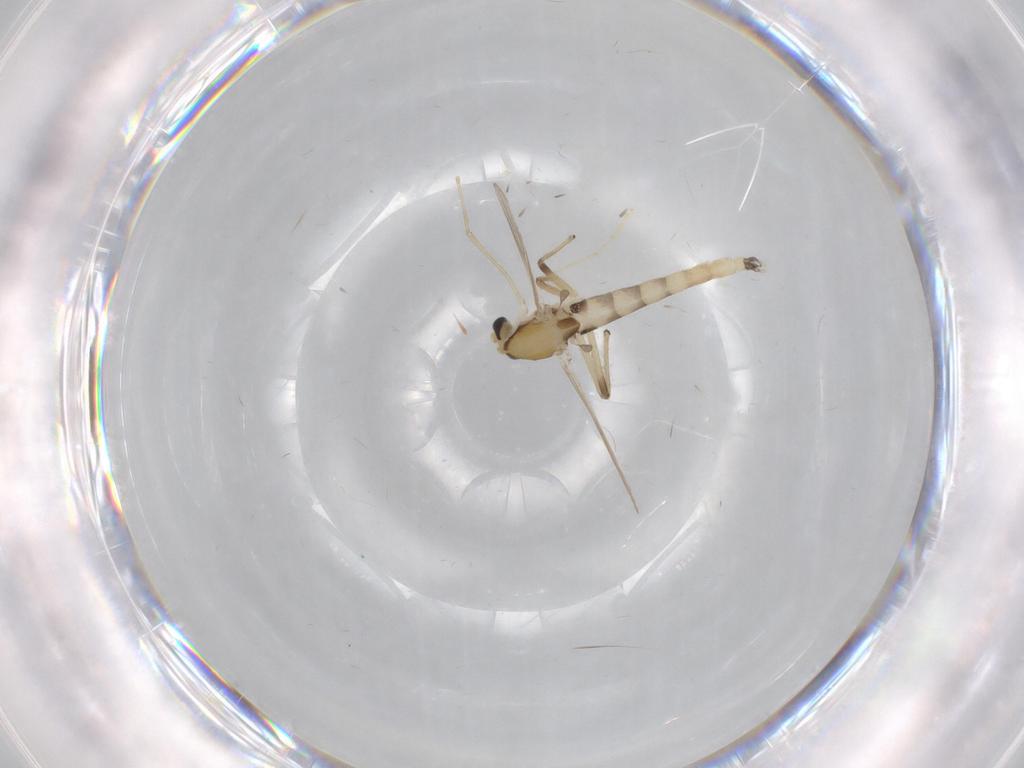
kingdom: Animalia
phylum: Arthropoda
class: Insecta
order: Diptera
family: Chironomidae
